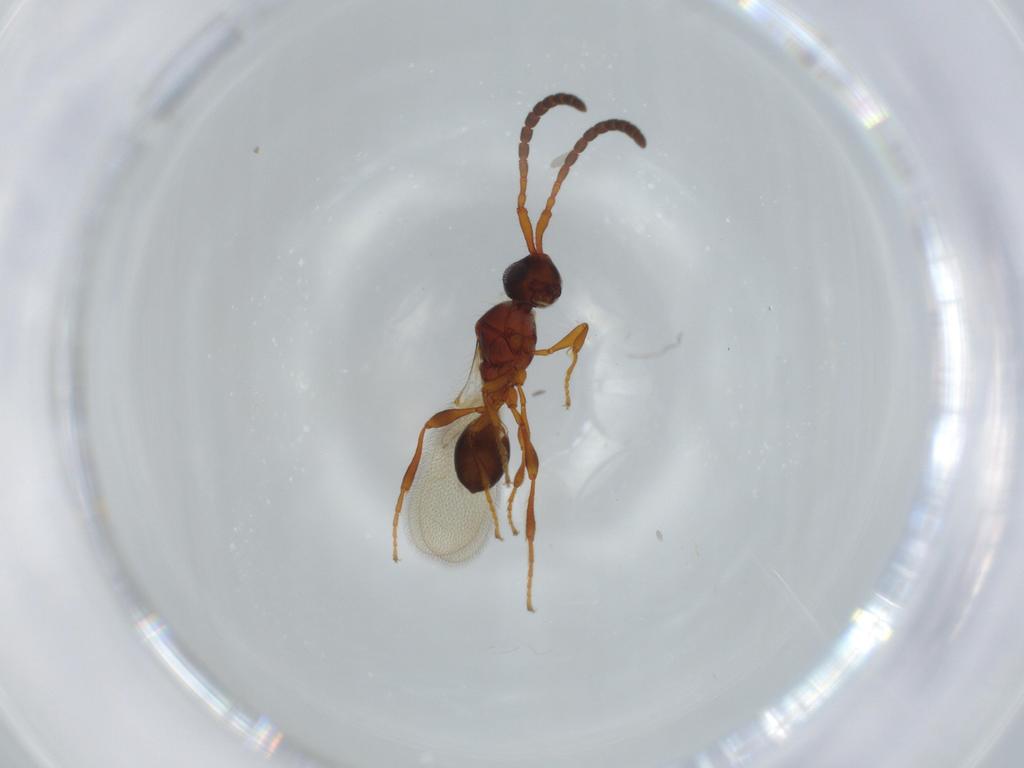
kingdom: Animalia
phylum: Arthropoda
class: Insecta
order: Hymenoptera
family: Diapriidae
